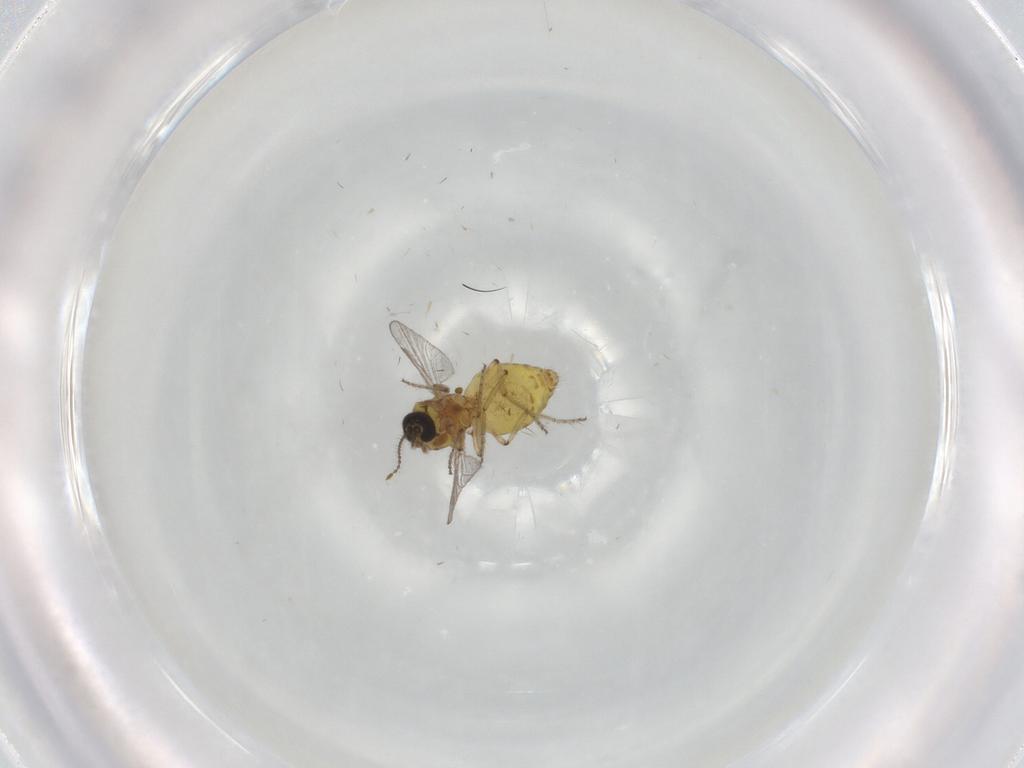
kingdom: Animalia
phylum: Arthropoda
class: Insecta
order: Diptera
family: Ceratopogonidae
